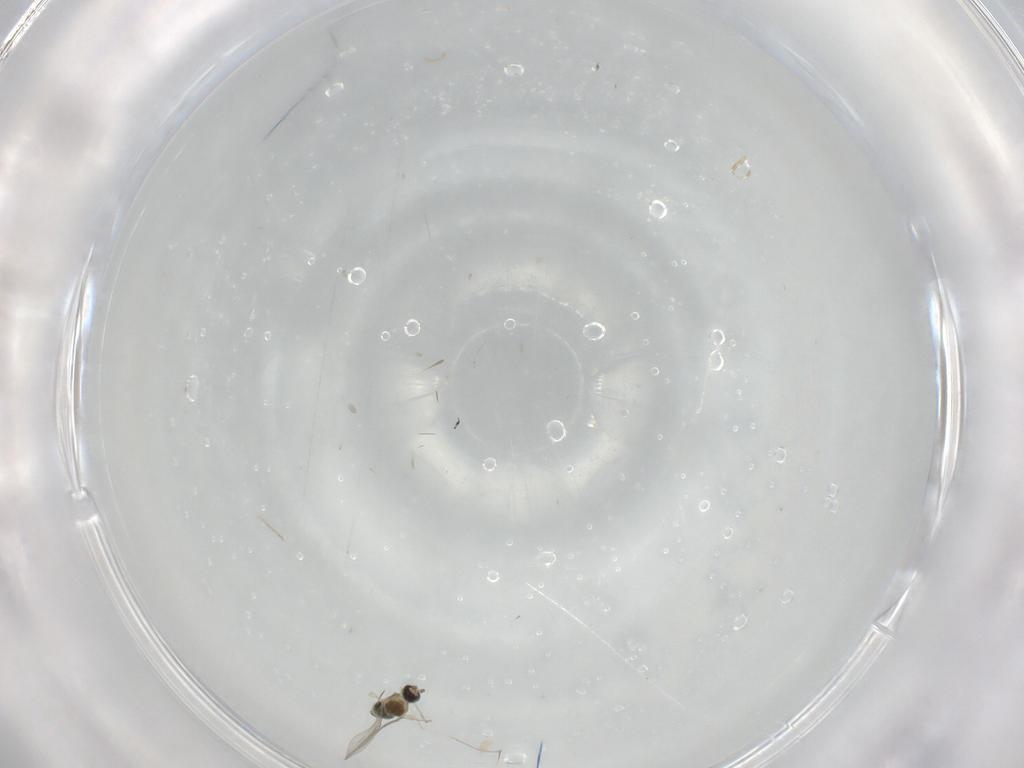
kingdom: Animalia
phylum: Arthropoda
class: Insecta
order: Diptera
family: Cecidomyiidae
